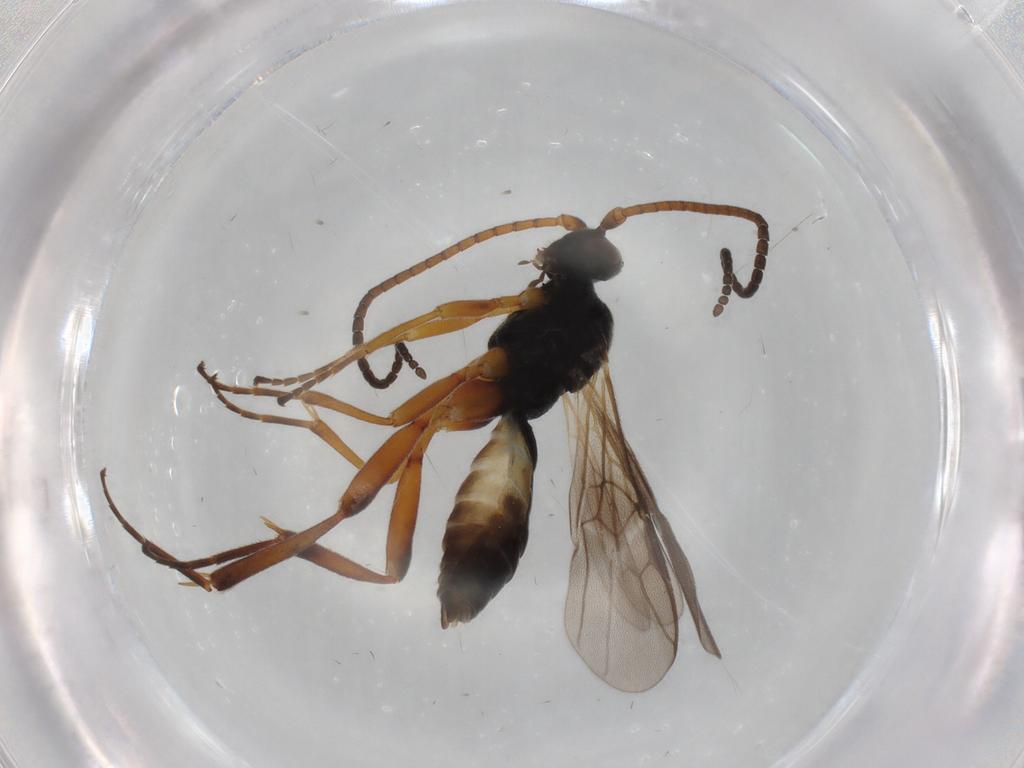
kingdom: Animalia
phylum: Arthropoda
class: Insecta
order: Hymenoptera
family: Braconidae
